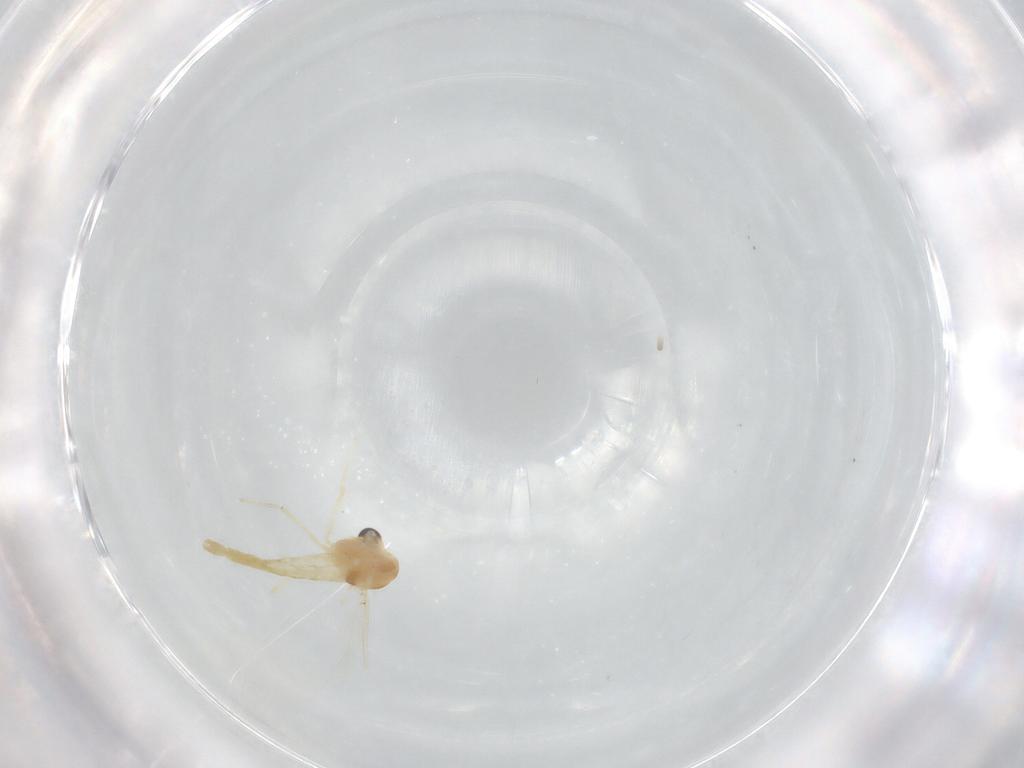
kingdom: Animalia
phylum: Arthropoda
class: Insecta
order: Diptera
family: Chironomidae
